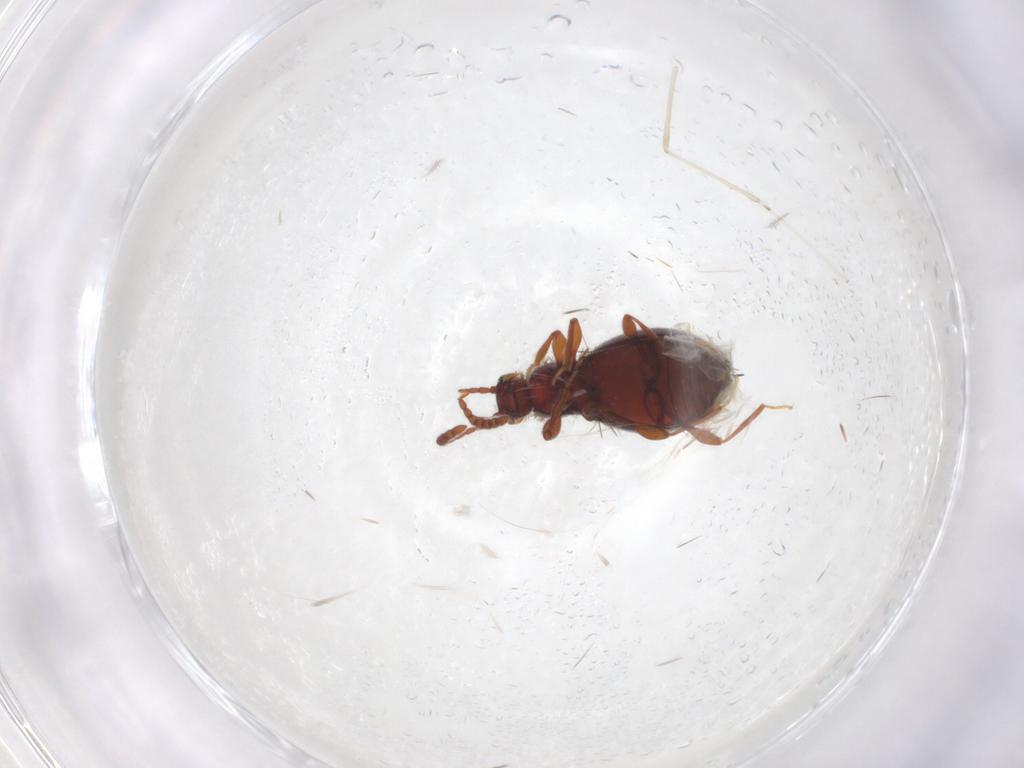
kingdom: Animalia
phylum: Arthropoda
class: Insecta
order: Coleoptera
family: Staphylinidae
